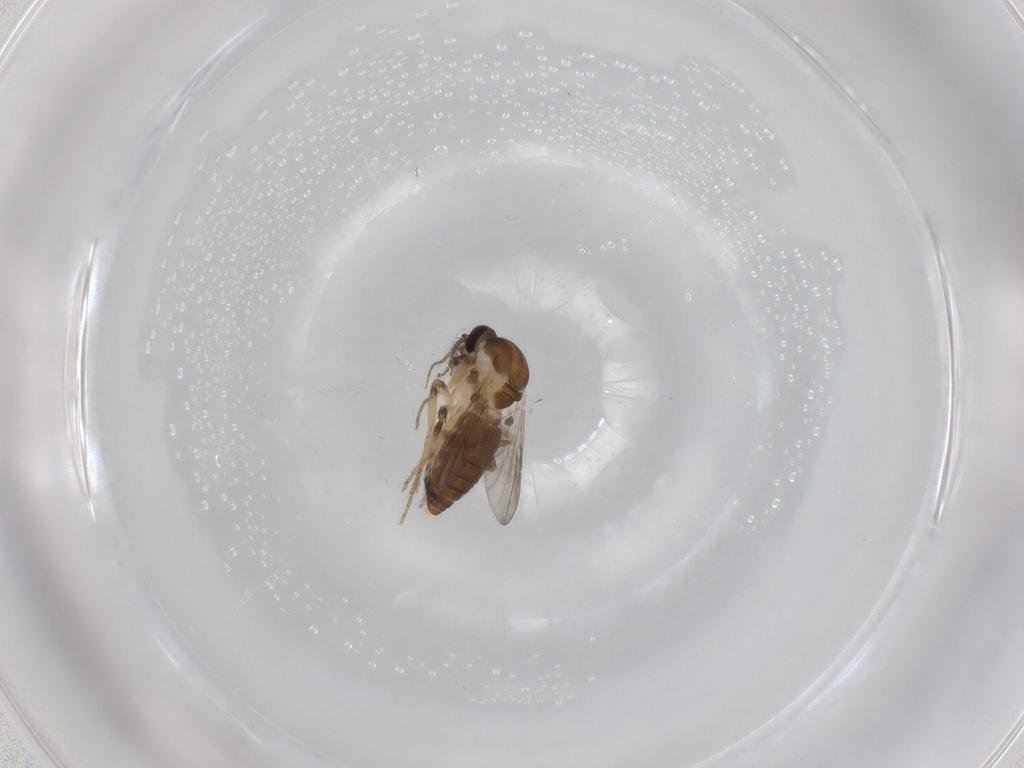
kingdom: Animalia
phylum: Arthropoda
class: Insecta
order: Diptera
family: Ceratopogonidae
